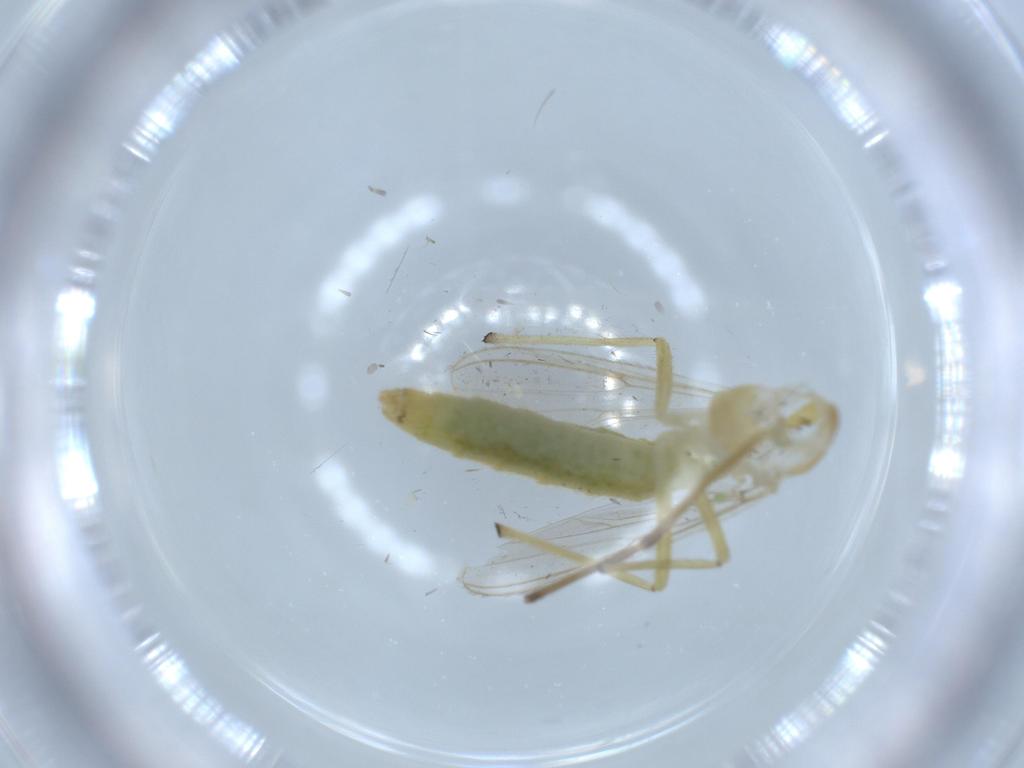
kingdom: Animalia
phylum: Arthropoda
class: Insecta
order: Diptera
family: Chironomidae
